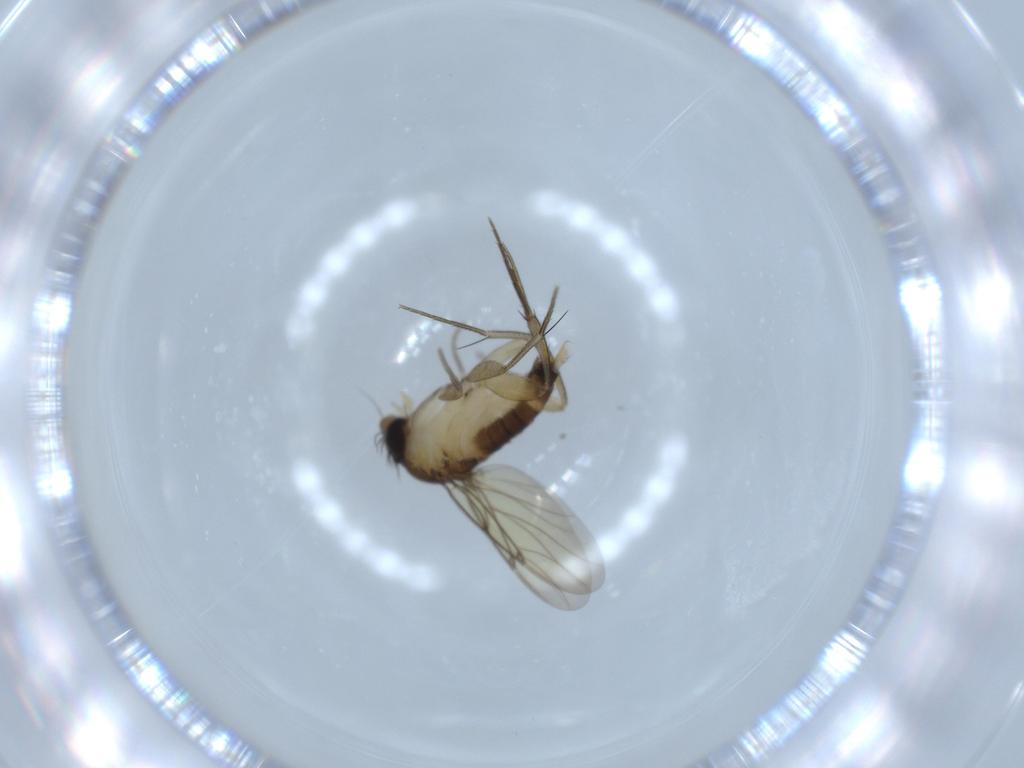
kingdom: Animalia
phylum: Arthropoda
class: Insecta
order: Diptera
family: Phoridae
